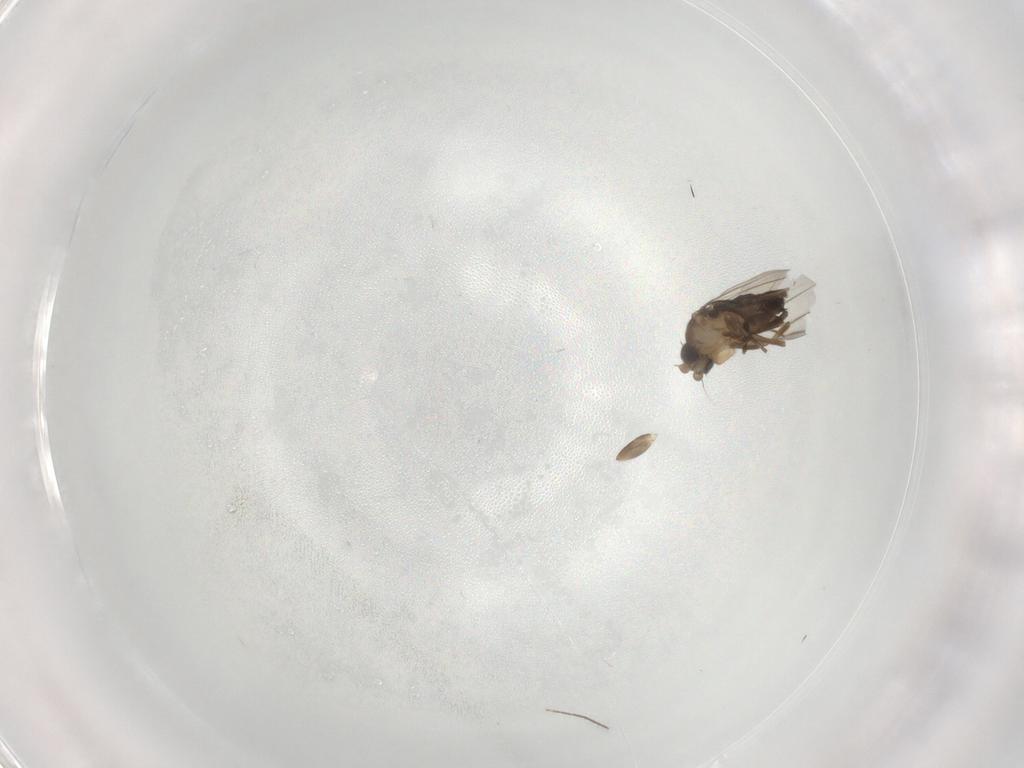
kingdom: Animalia
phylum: Arthropoda
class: Insecta
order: Diptera
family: Phoridae
